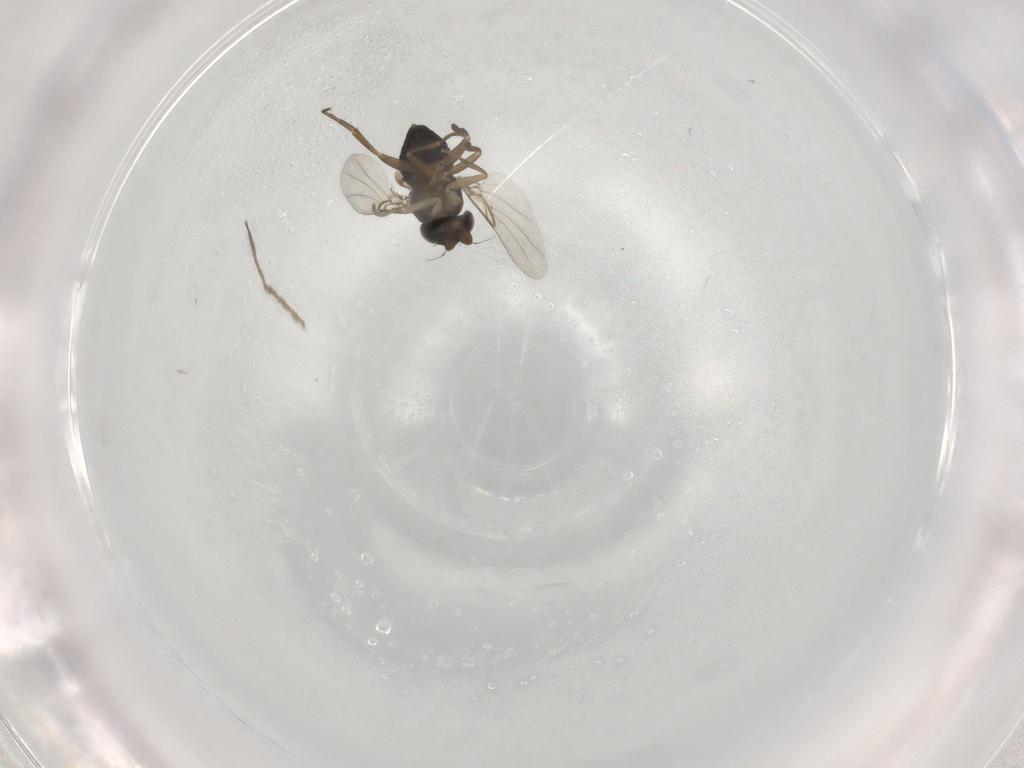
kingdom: Animalia
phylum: Arthropoda
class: Insecta
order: Diptera
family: Phoridae
